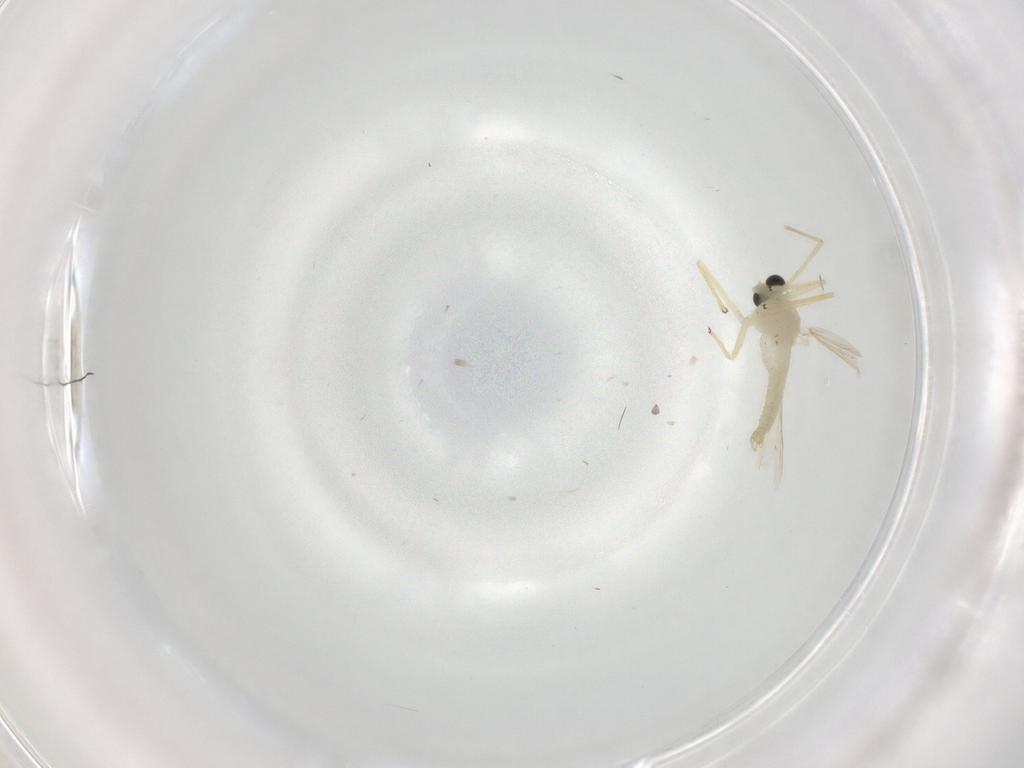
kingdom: Animalia
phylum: Arthropoda
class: Insecta
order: Diptera
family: Chironomidae
